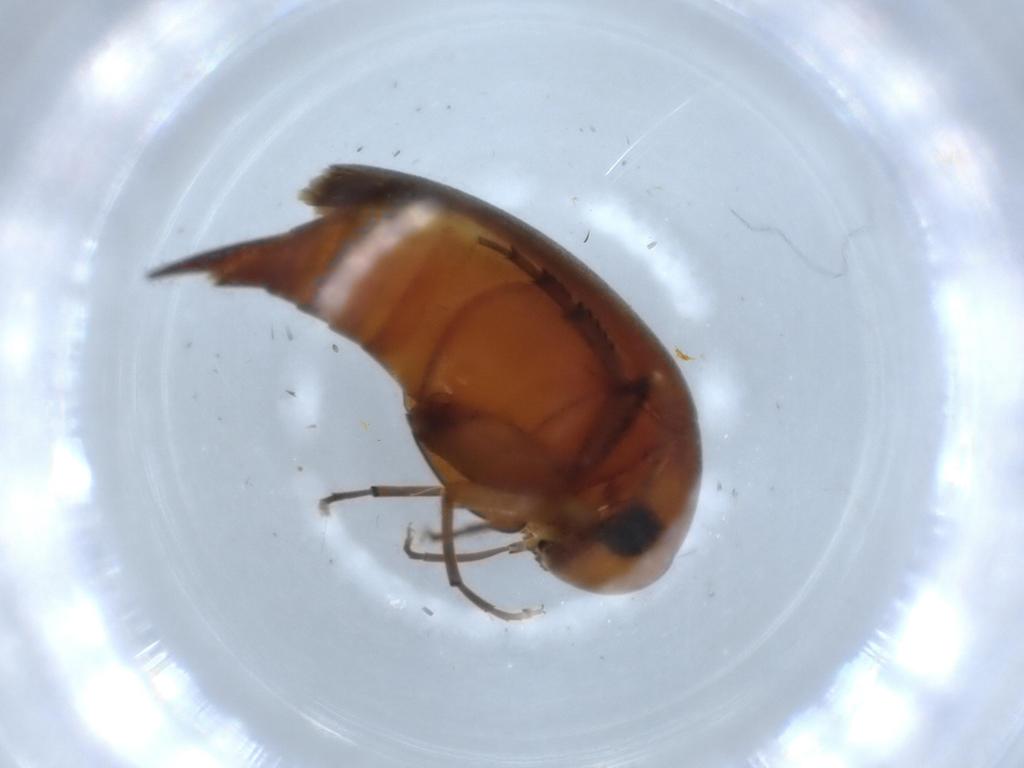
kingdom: Animalia
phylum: Arthropoda
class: Insecta
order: Coleoptera
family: Mordellidae
